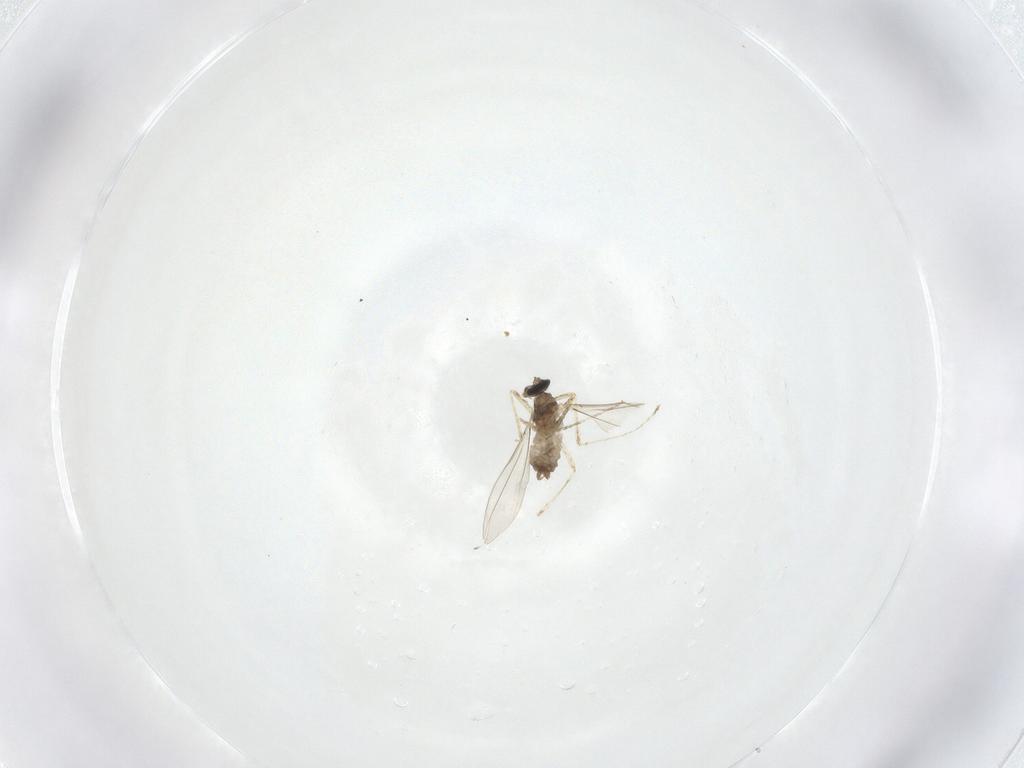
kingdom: Animalia
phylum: Arthropoda
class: Insecta
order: Diptera
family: Cecidomyiidae
